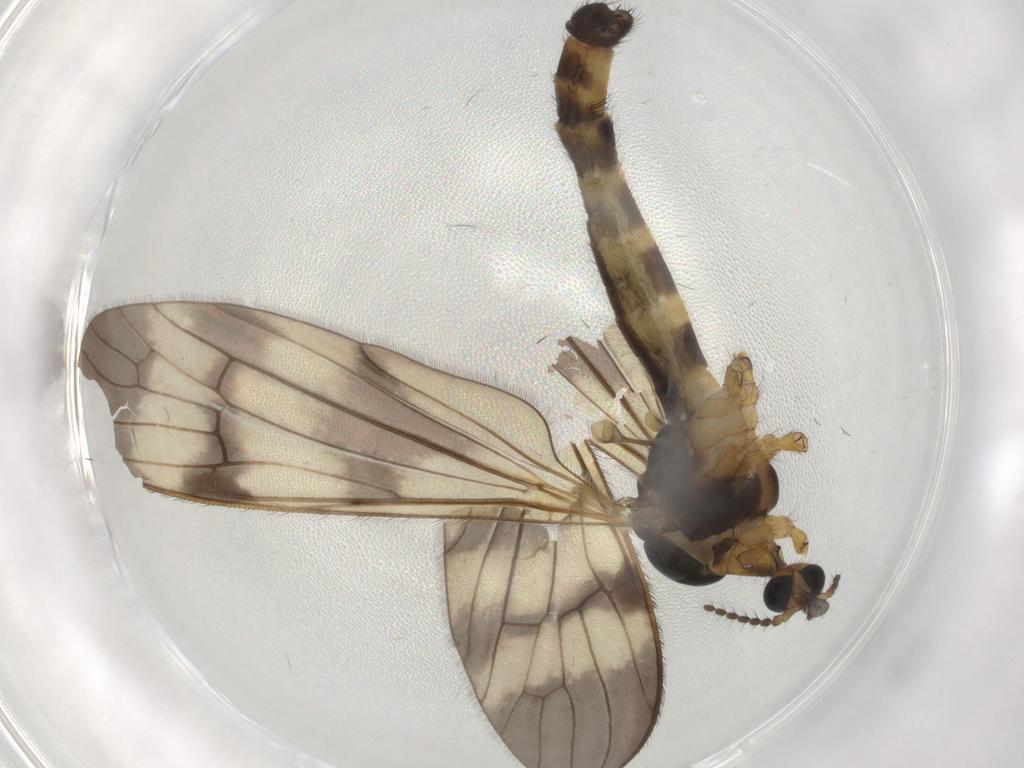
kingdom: Animalia
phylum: Arthropoda
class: Insecta
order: Diptera
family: Limoniidae
